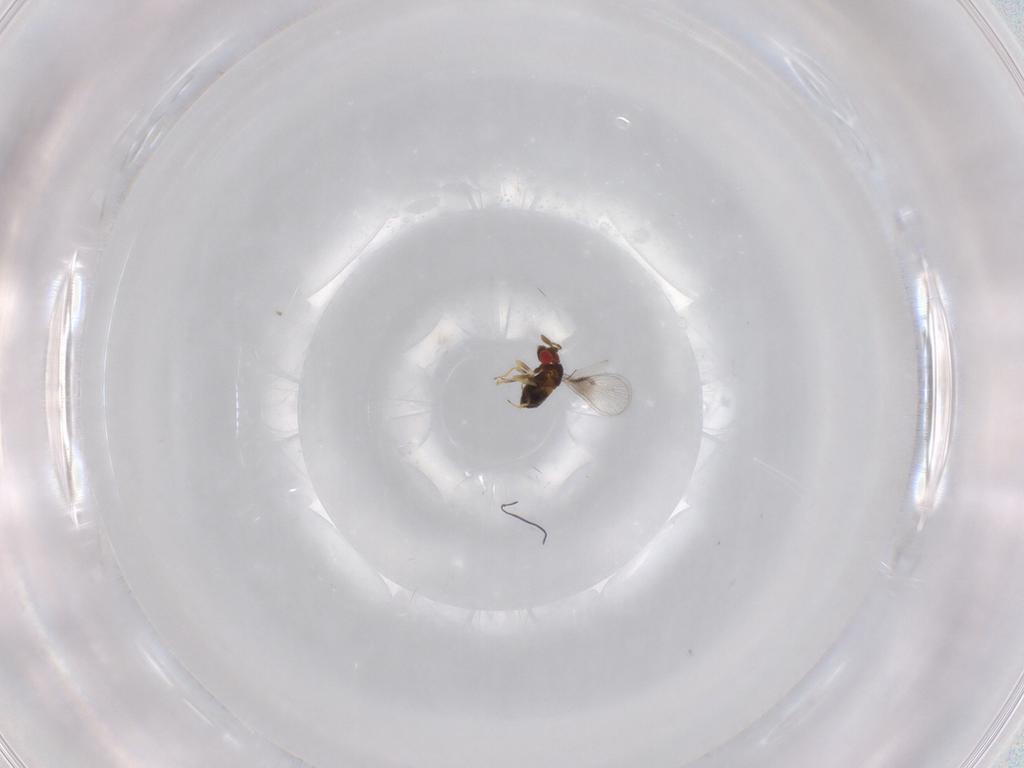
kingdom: Animalia
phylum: Arthropoda
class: Insecta
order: Hymenoptera
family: Trichogrammatidae
